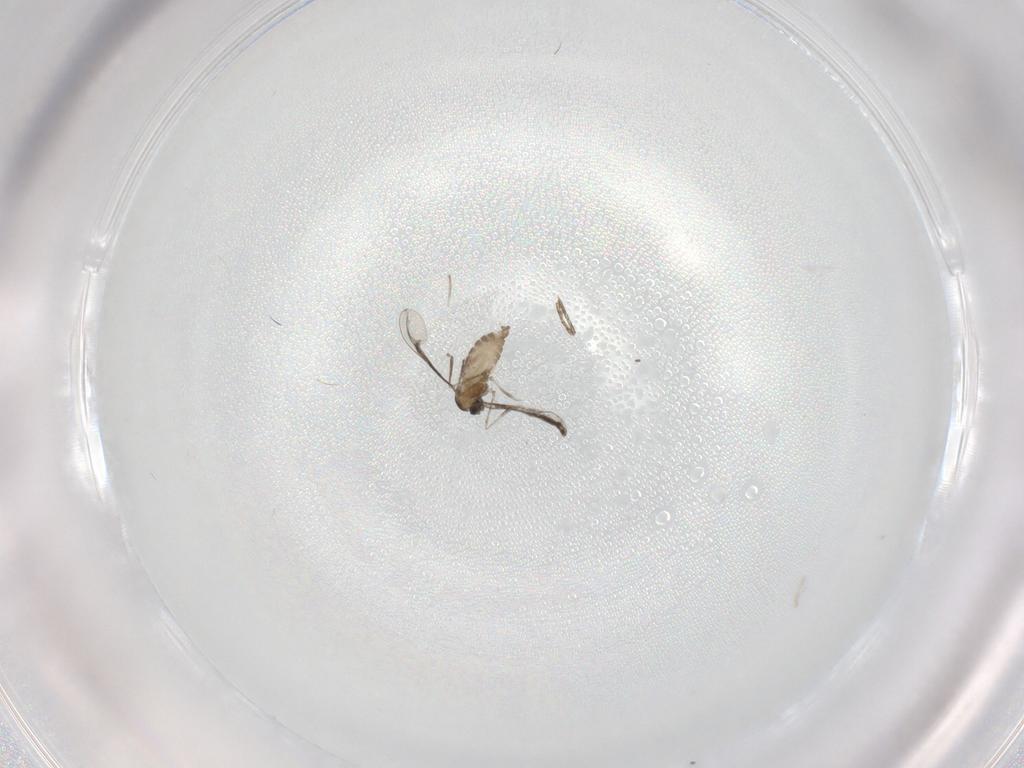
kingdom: Animalia
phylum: Arthropoda
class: Insecta
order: Diptera
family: Cecidomyiidae
